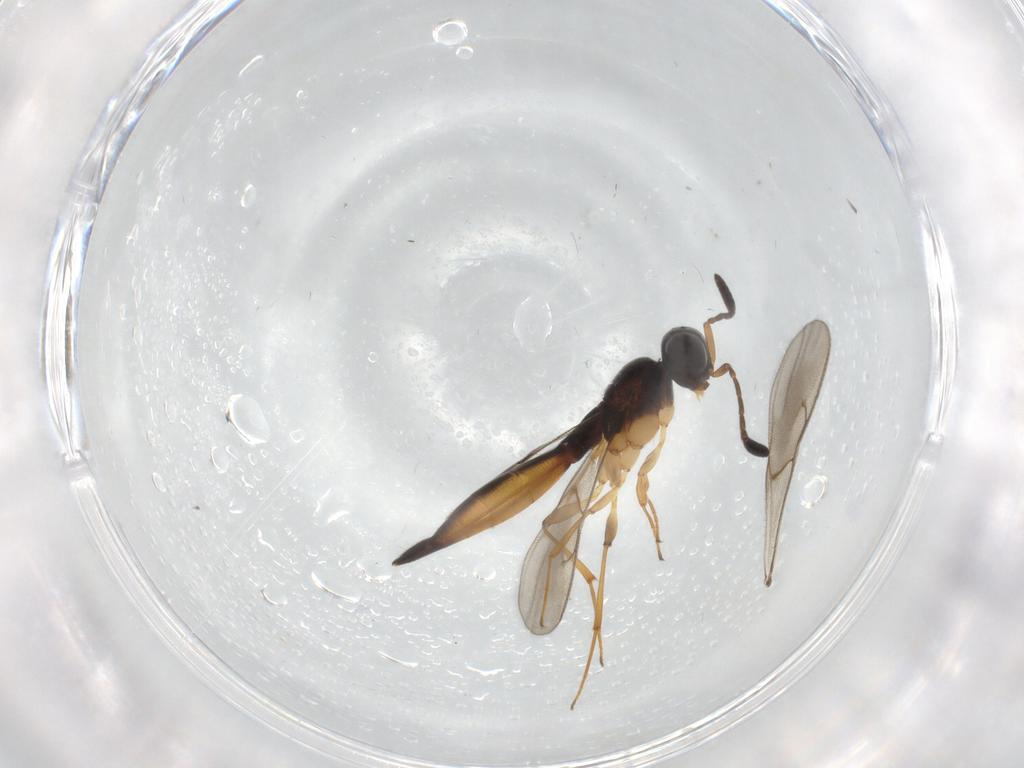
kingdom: Animalia
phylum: Arthropoda
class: Insecta
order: Hymenoptera
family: Scelionidae
